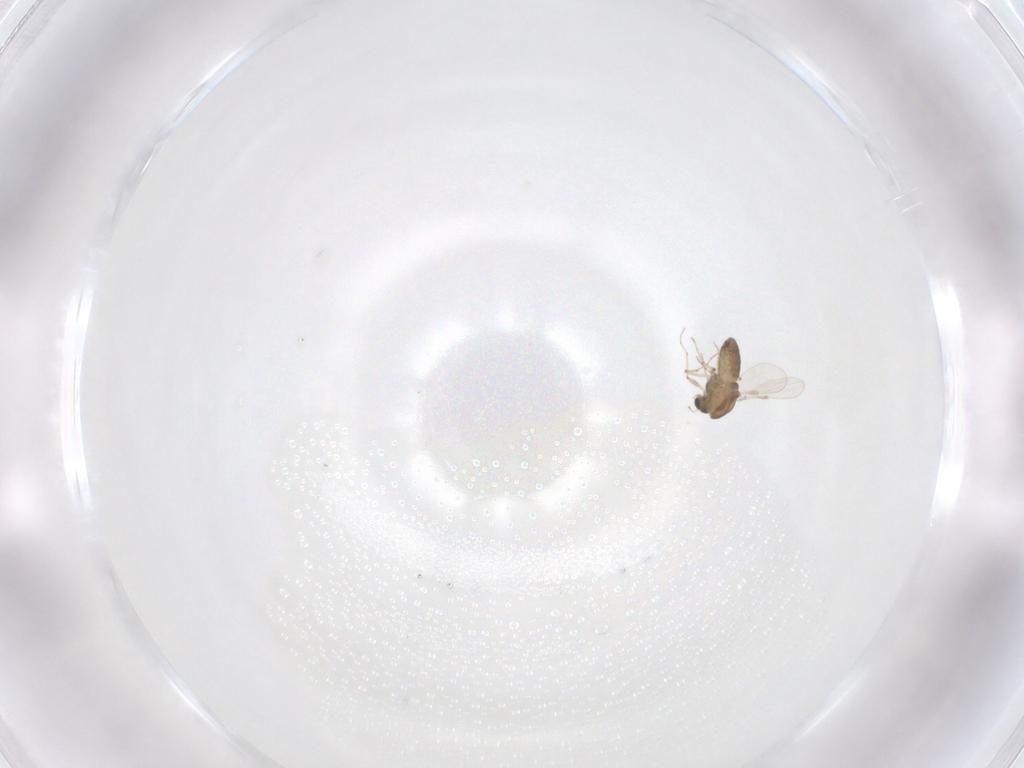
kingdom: Animalia
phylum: Arthropoda
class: Insecta
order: Diptera
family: Chironomidae
